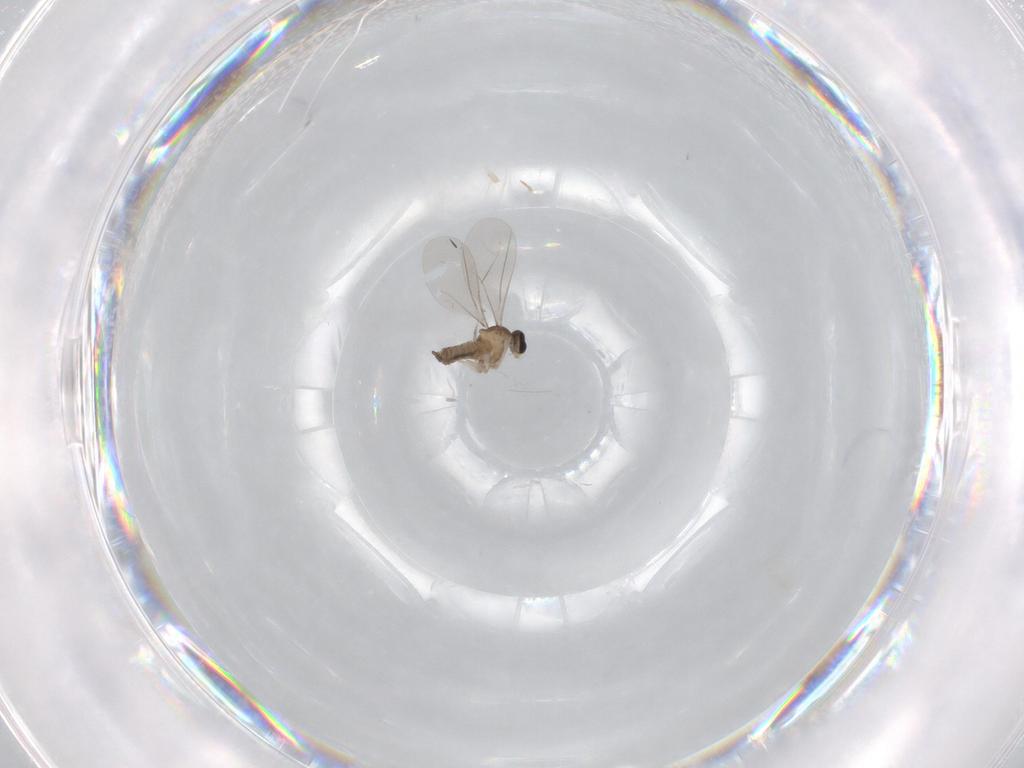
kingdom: Animalia
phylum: Arthropoda
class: Insecta
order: Diptera
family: Cecidomyiidae
